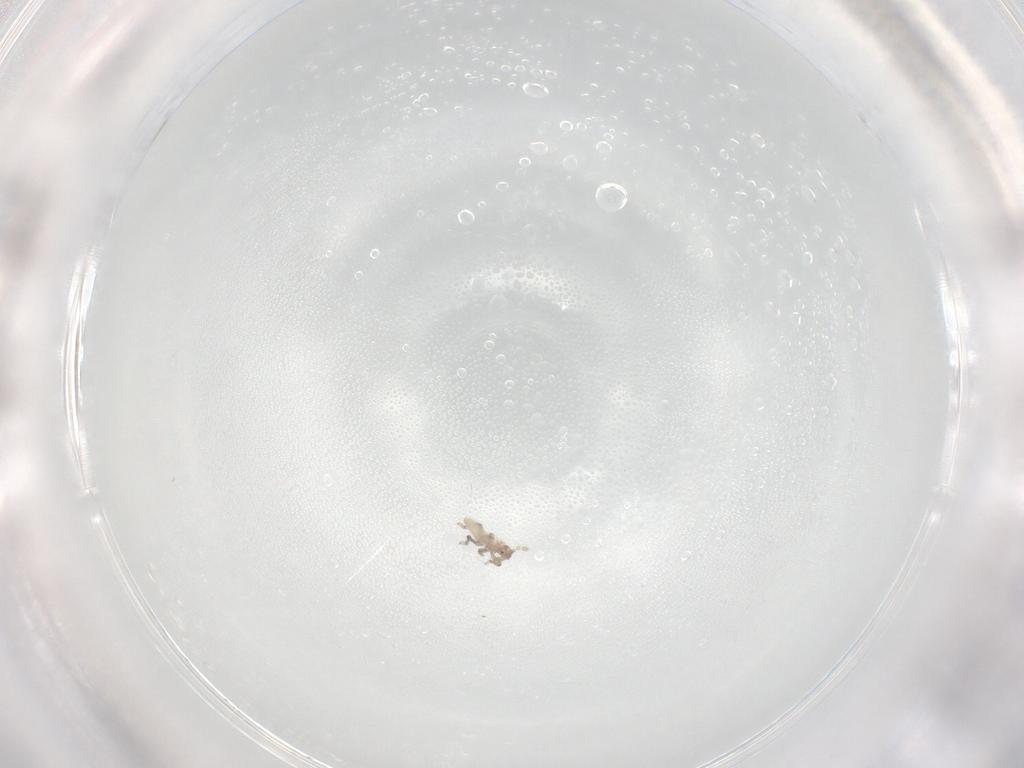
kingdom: Animalia
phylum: Arthropoda
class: Insecta
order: Hemiptera
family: Aphididae
